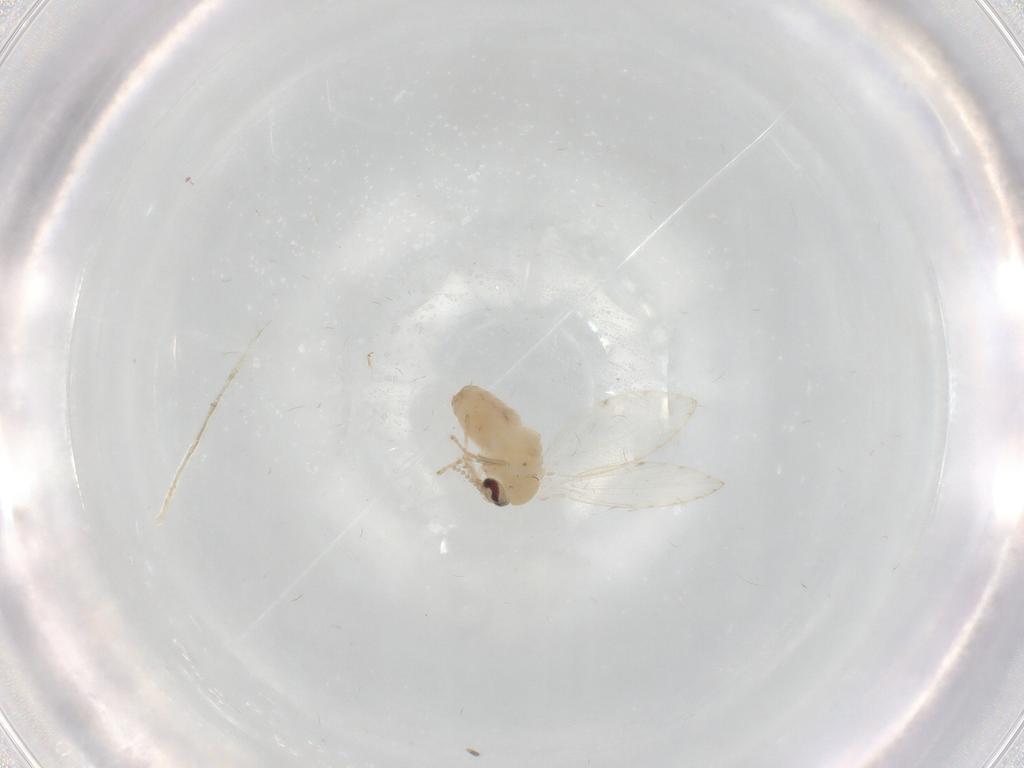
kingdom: Animalia
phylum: Arthropoda
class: Insecta
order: Diptera
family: Psychodidae
